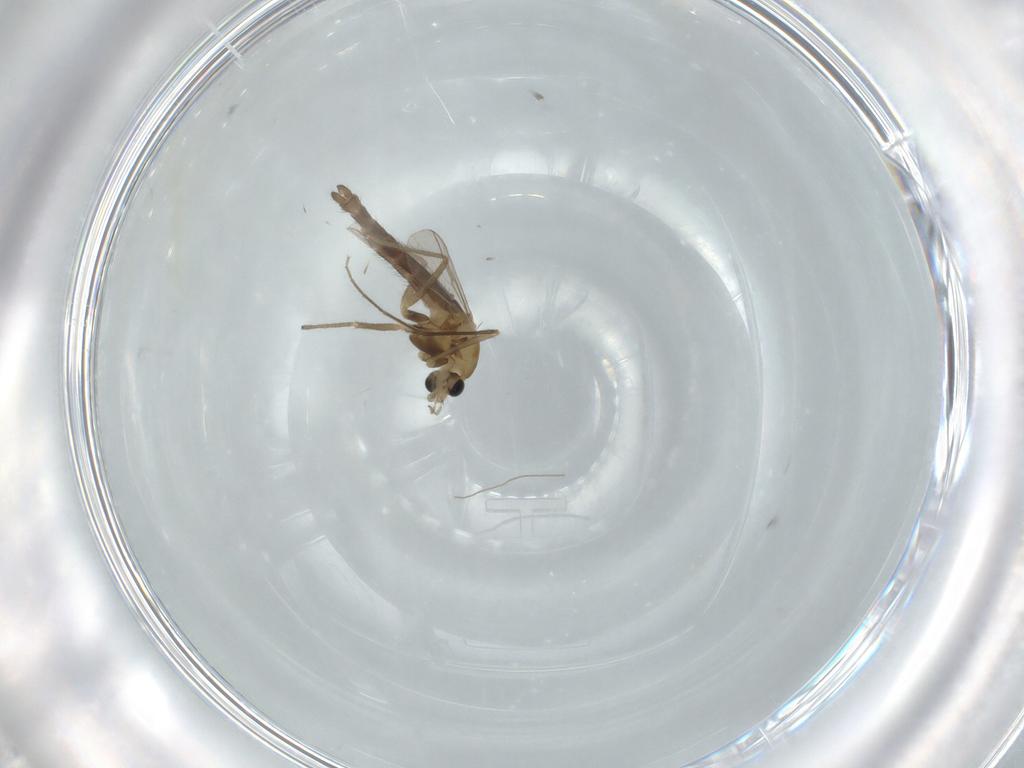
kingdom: Animalia
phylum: Arthropoda
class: Insecta
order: Diptera
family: Chironomidae
